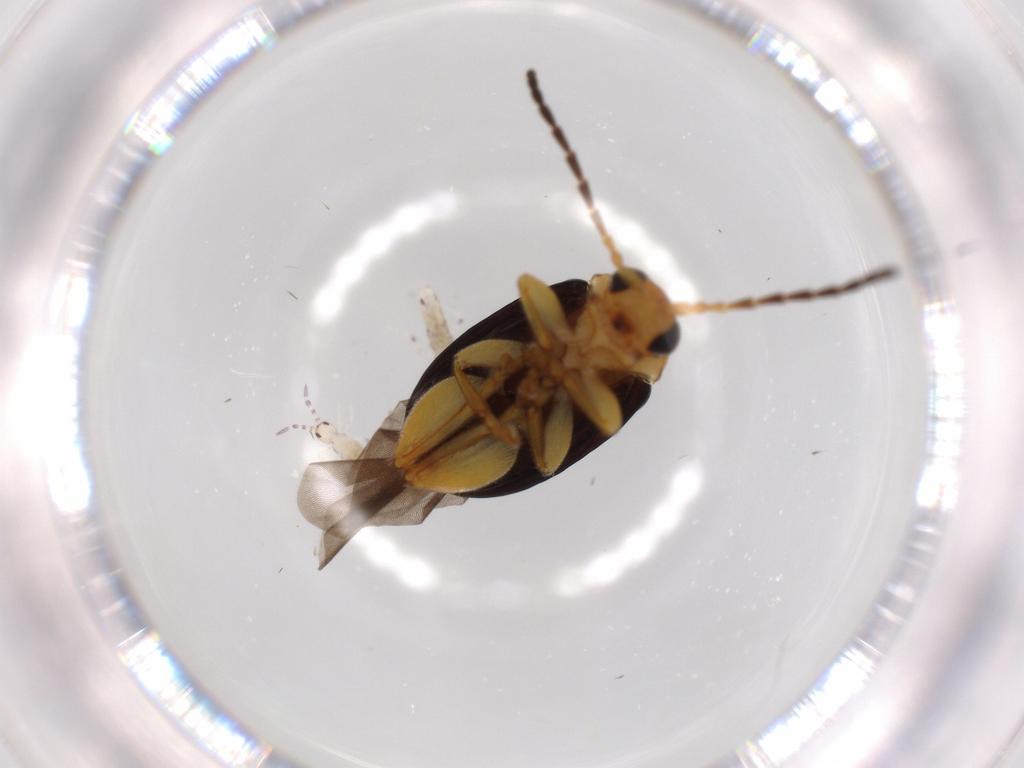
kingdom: Animalia
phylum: Arthropoda
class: Collembola
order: Entomobryomorpha
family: Entomobryidae
